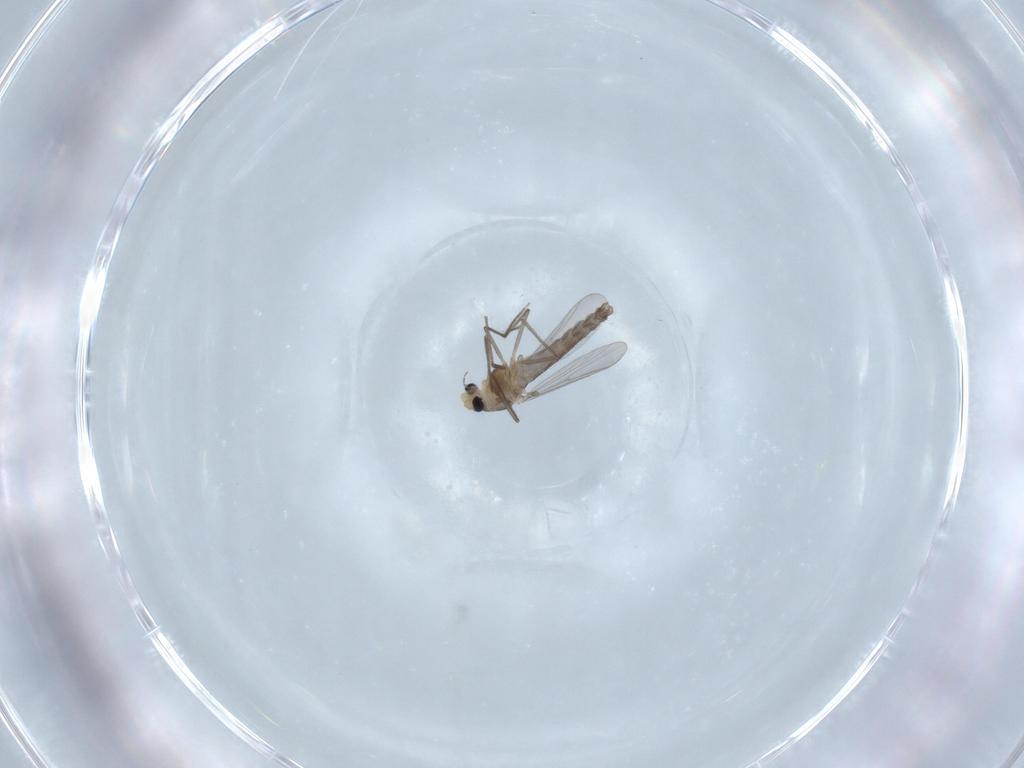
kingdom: Animalia
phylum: Arthropoda
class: Insecta
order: Diptera
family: Chironomidae
